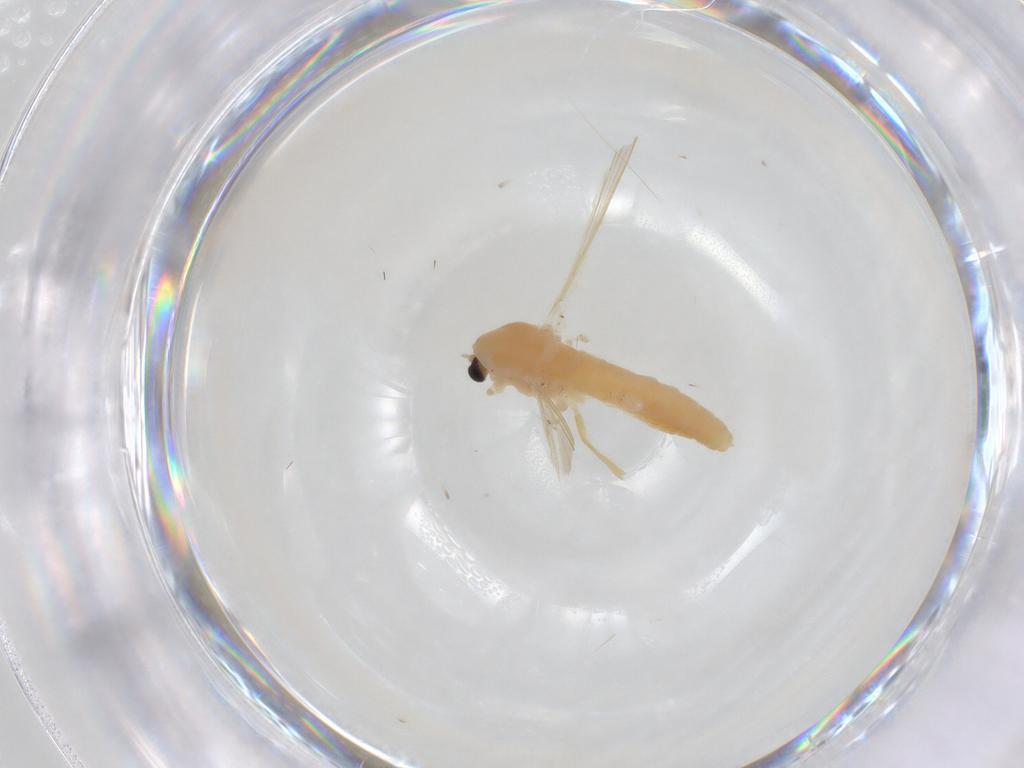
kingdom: Animalia
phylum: Arthropoda
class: Insecta
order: Diptera
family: Chironomidae
